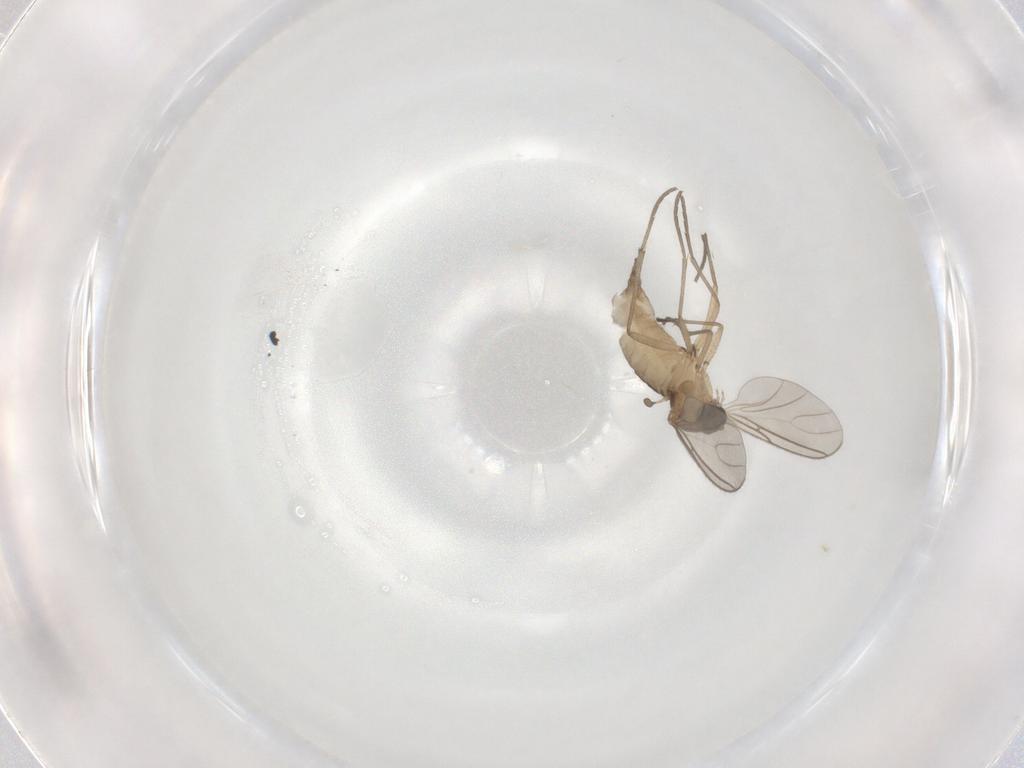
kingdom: Animalia
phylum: Arthropoda
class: Insecta
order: Diptera
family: Sciaridae
